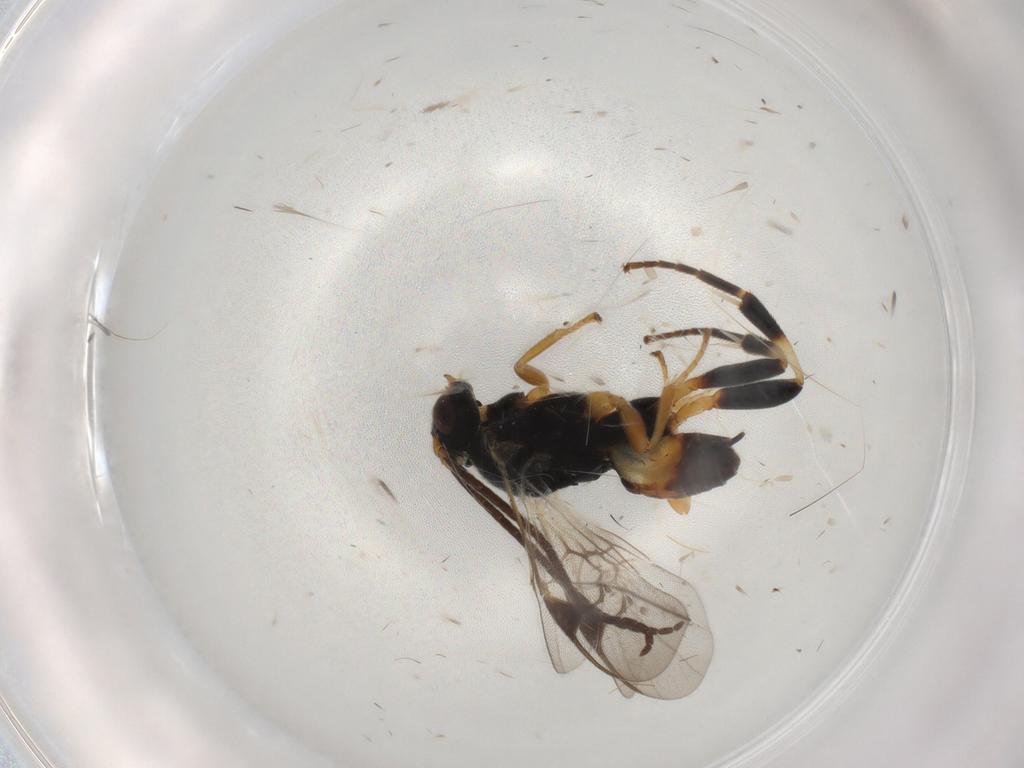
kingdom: Animalia
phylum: Arthropoda
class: Insecta
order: Hymenoptera
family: Braconidae
